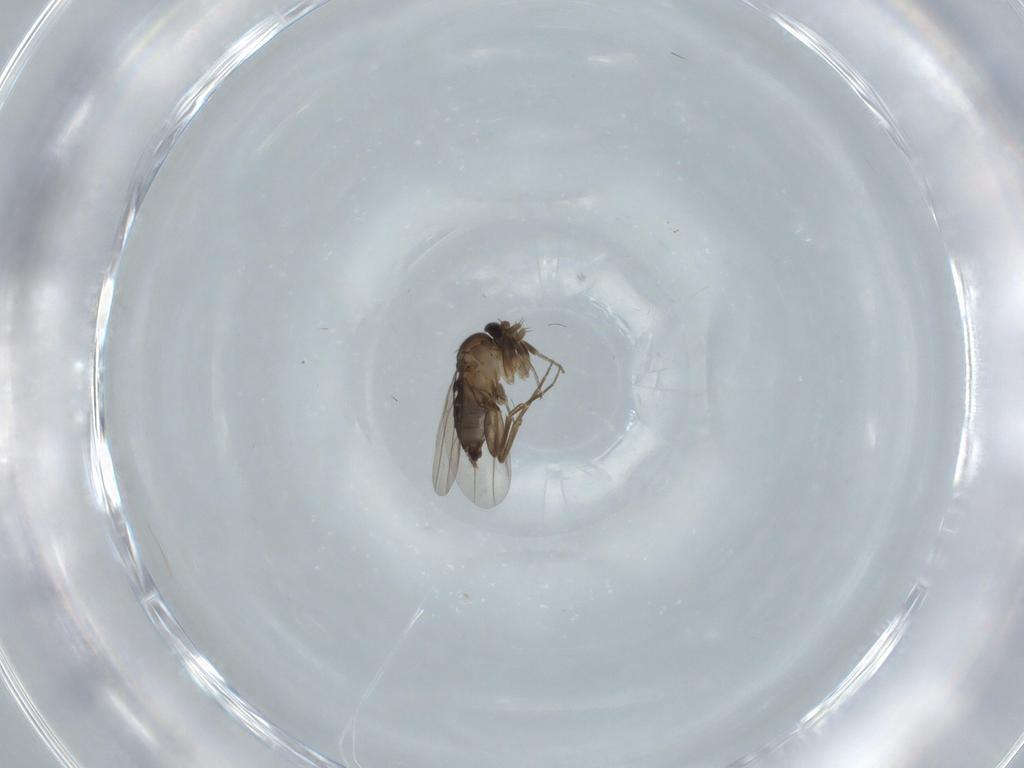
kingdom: Animalia
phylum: Arthropoda
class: Insecta
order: Diptera
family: Phoridae
